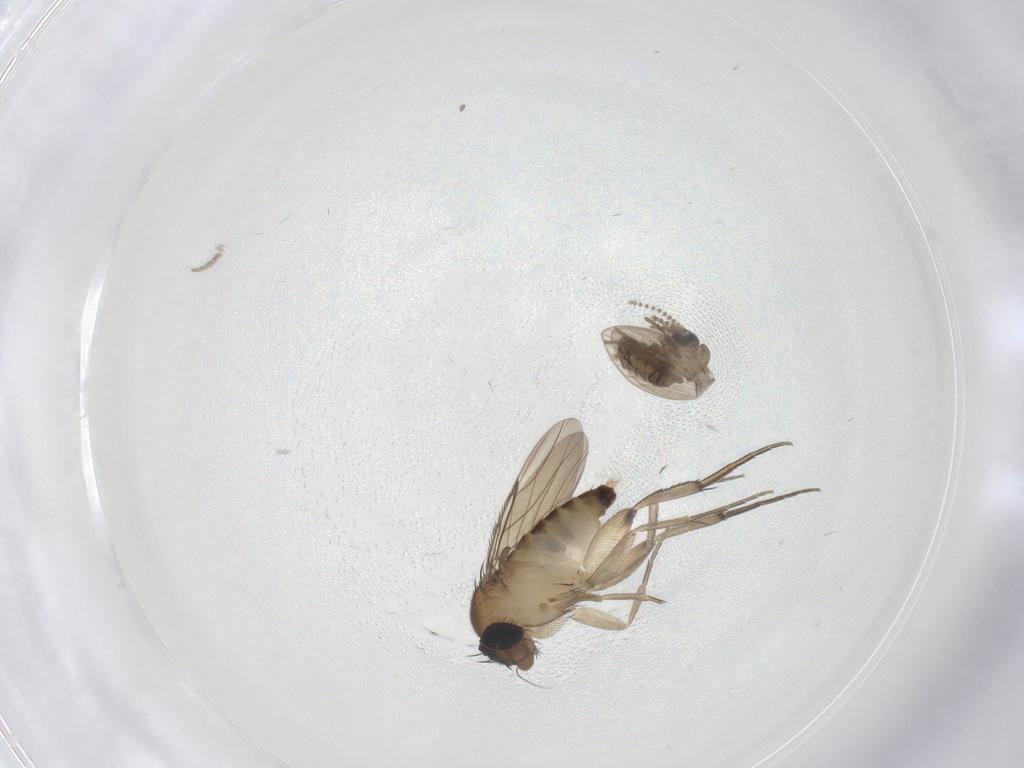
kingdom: Animalia
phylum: Arthropoda
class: Insecta
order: Diptera
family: Phoridae
